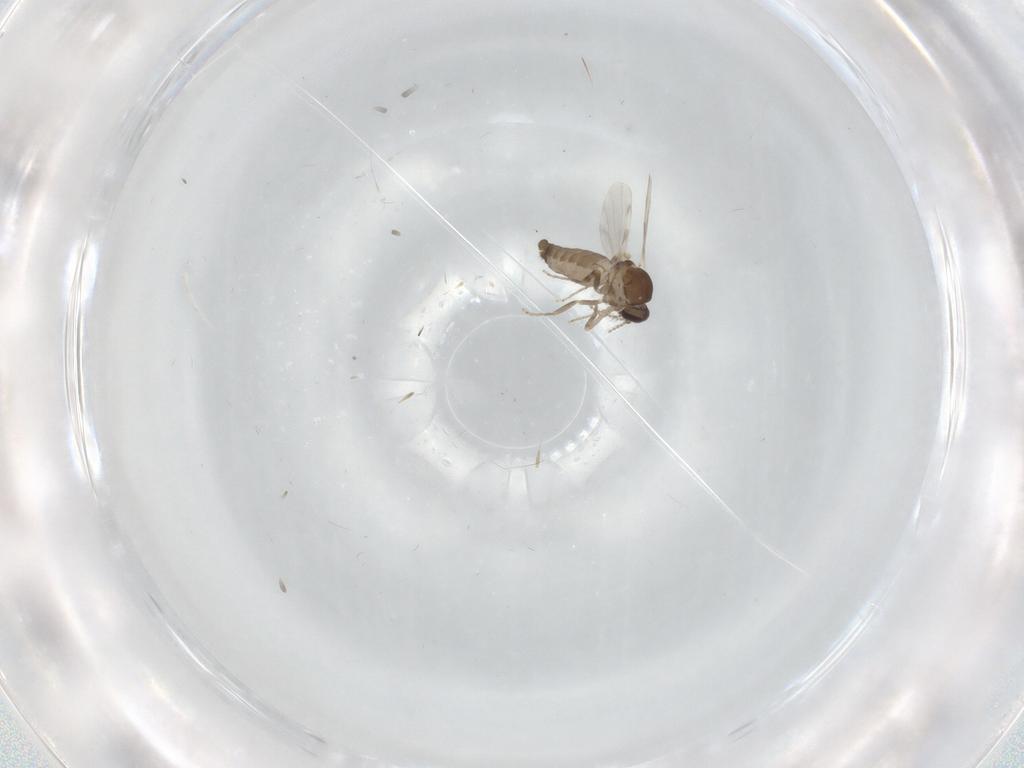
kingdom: Animalia
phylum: Arthropoda
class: Insecta
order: Diptera
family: Ceratopogonidae
